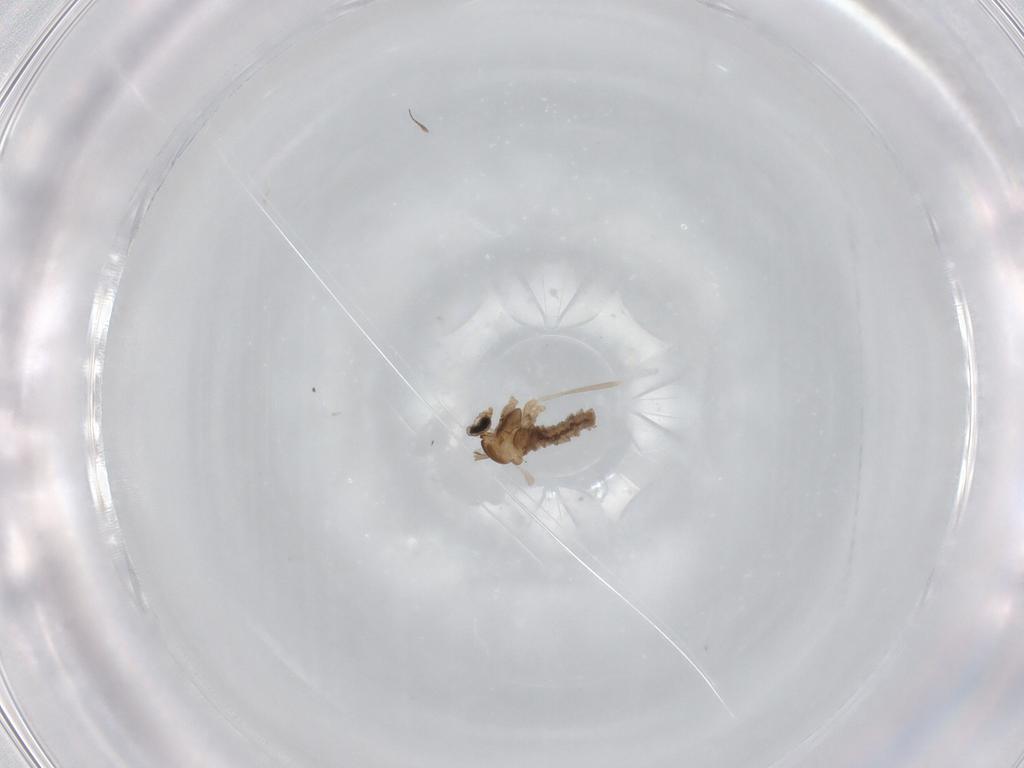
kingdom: Animalia
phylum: Arthropoda
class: Insecta
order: Diptera
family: Cecidomyiidae
